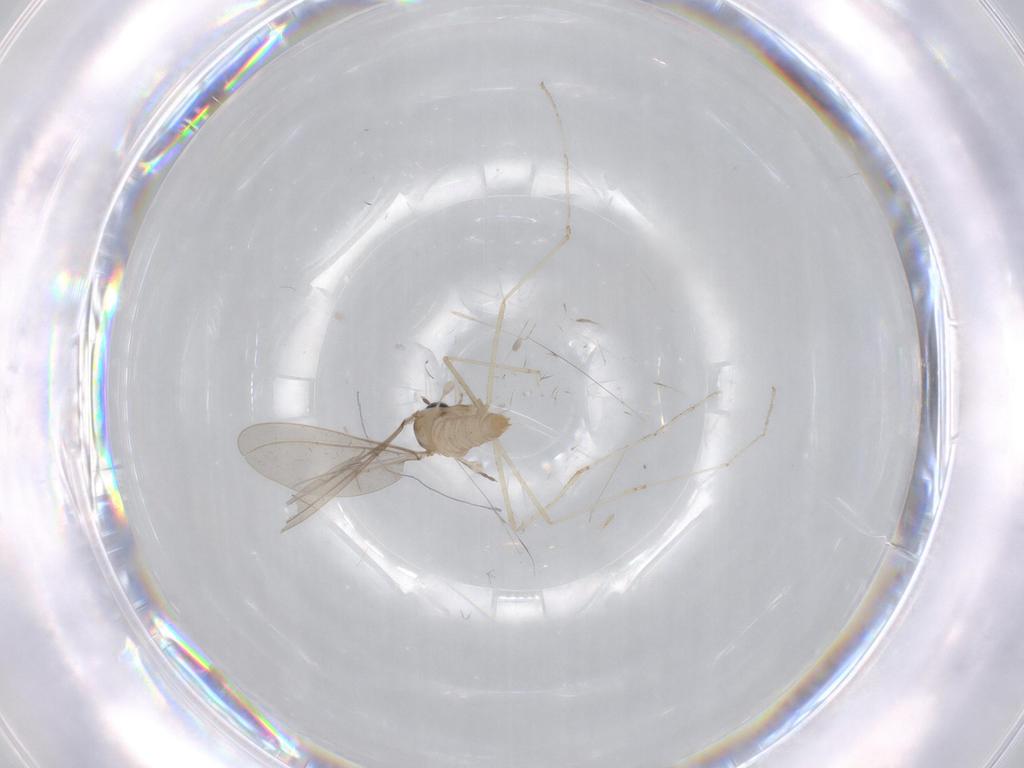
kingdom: Animalia
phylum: Arthropoda
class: Insecta
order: Diptera
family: Cecidomyiidae
